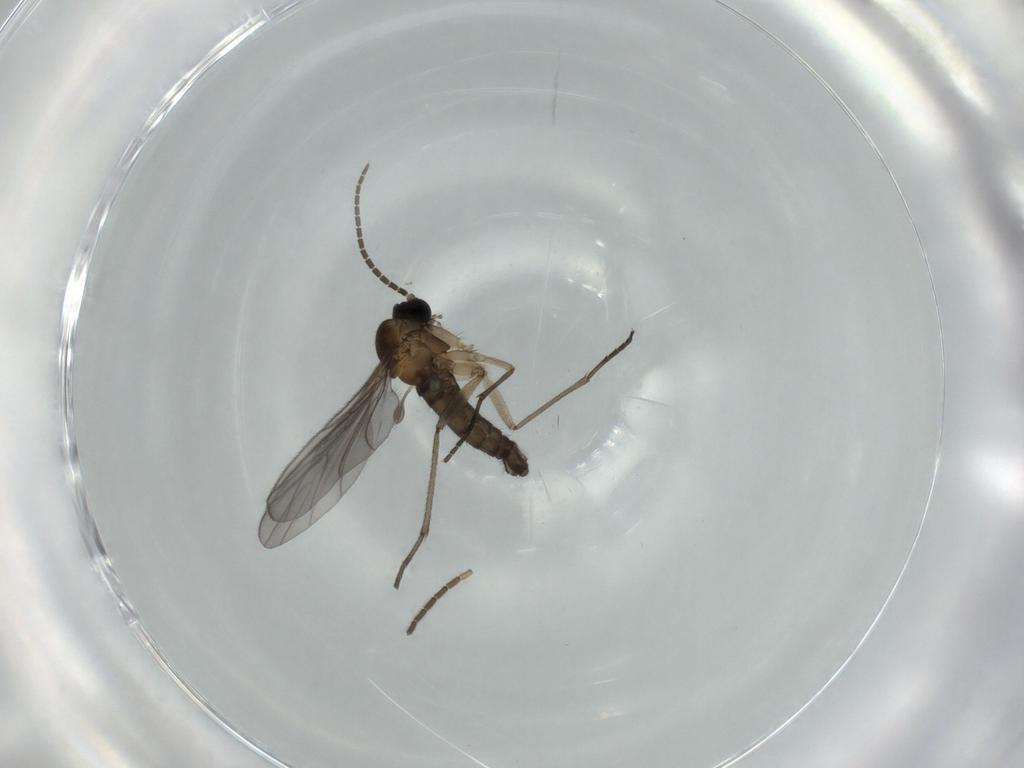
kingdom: Animalia
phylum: Arthropoda
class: Insecta
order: Diptera
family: Sciaridae
